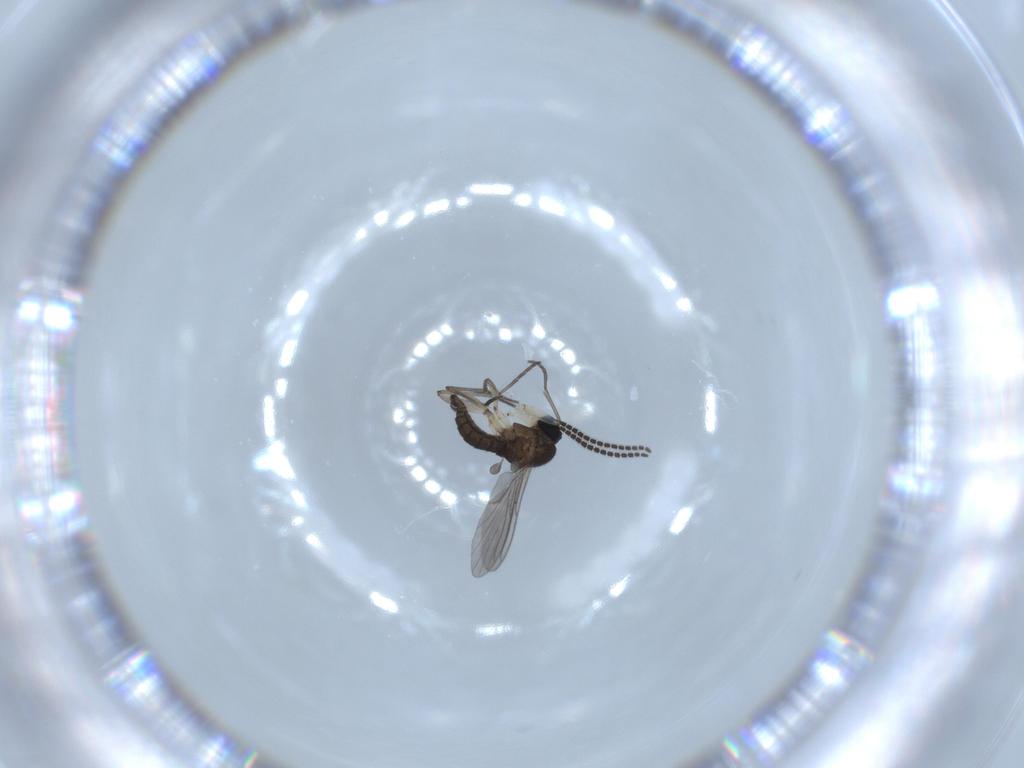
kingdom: Animalia
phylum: Arthropoda
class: Insecta
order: Diptera
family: Sciaridae
